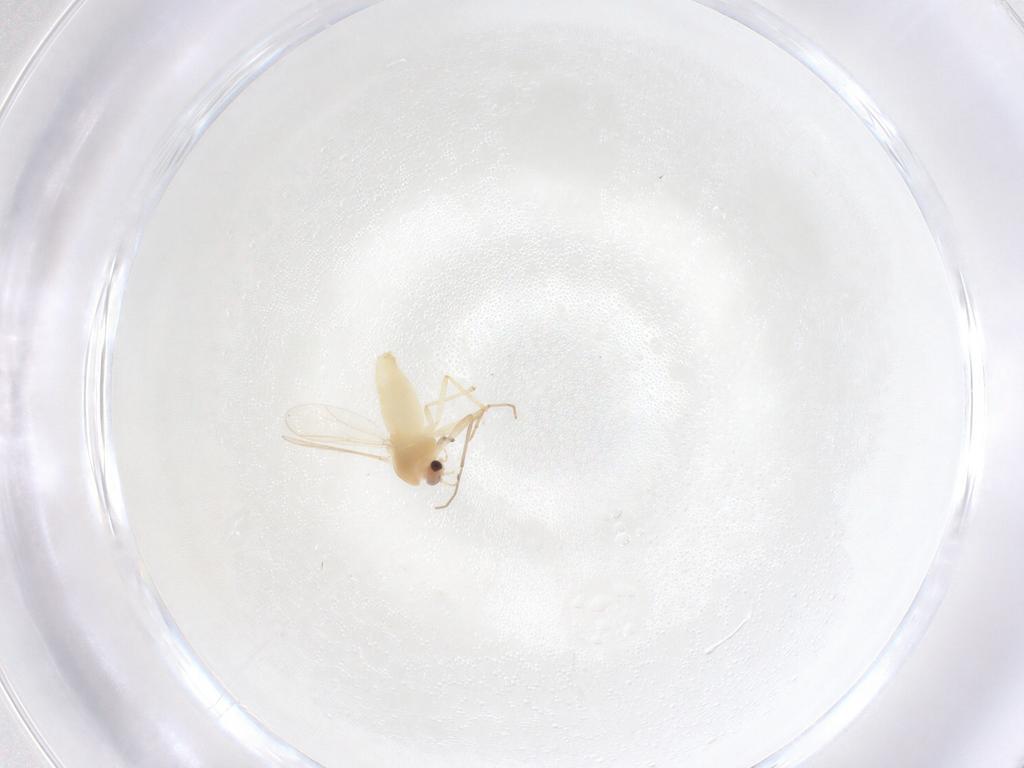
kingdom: Animalia
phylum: Arthropoda
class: Insecta
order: Diptera
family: Chironomidae
